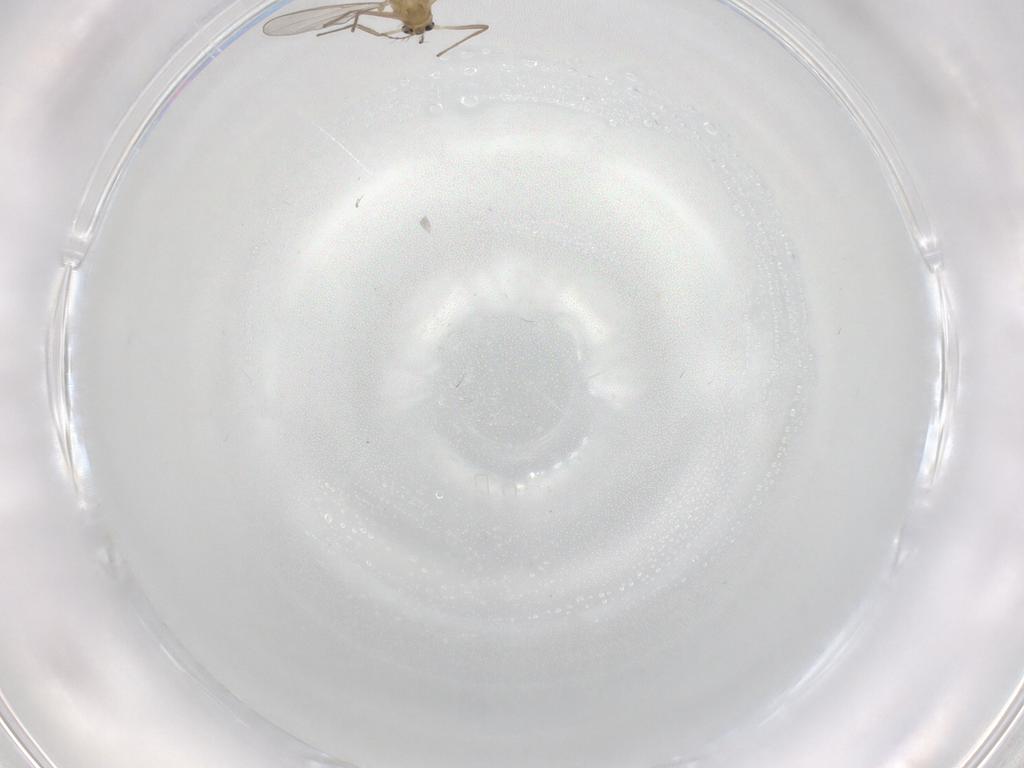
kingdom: Animalia
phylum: Arthropoda
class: Insecta
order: Diptera
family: Chironomidae
